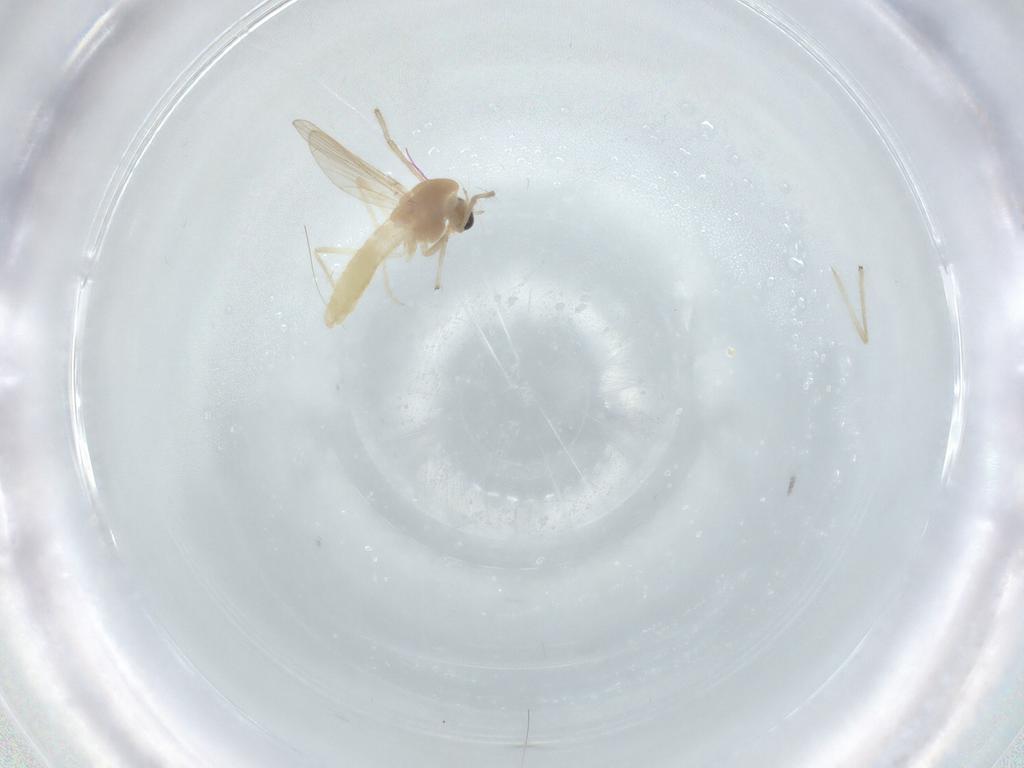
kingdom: Animalia
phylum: Arthropoda
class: Insecta
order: Diptera
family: Chironomidae
